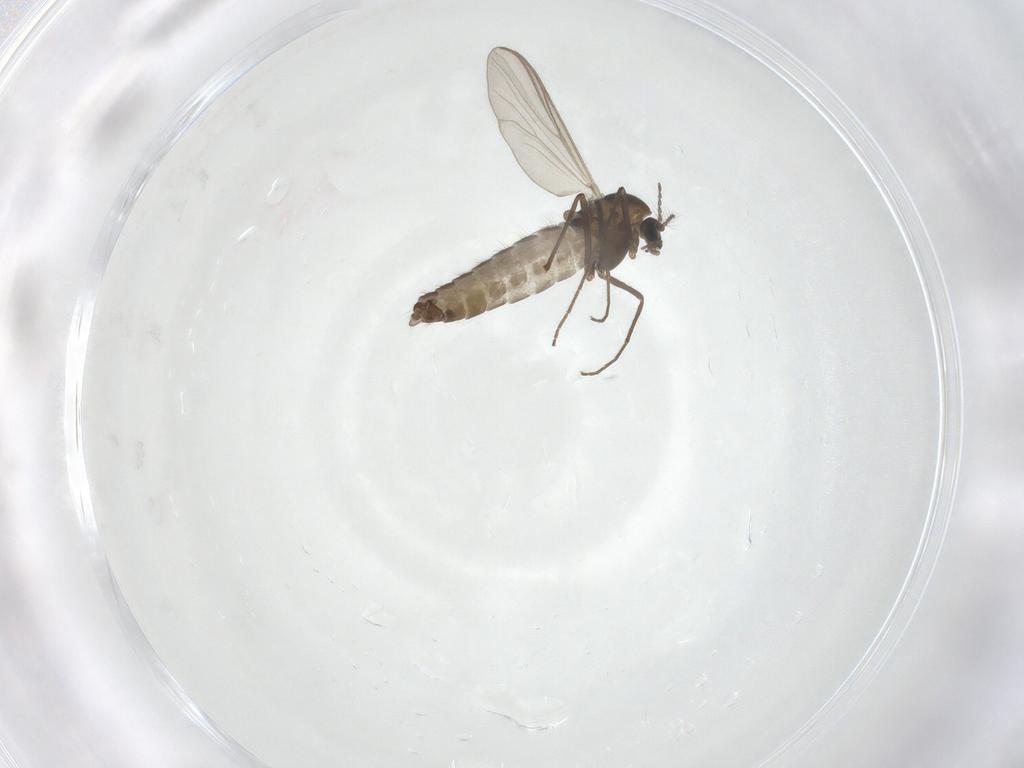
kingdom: Animalia
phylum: Arthropoda
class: Insecta
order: Diptera
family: Chironomidae
